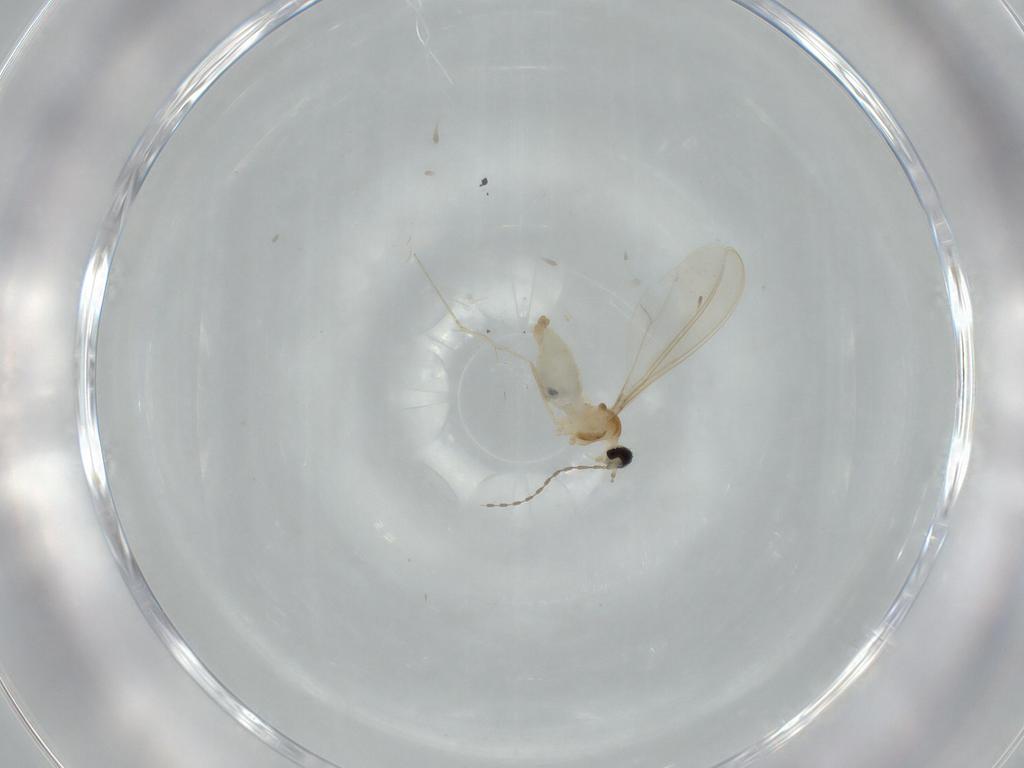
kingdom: Animalia
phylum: Arthropoda
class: Insecta
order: Diptera
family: Cecidomyiidae
